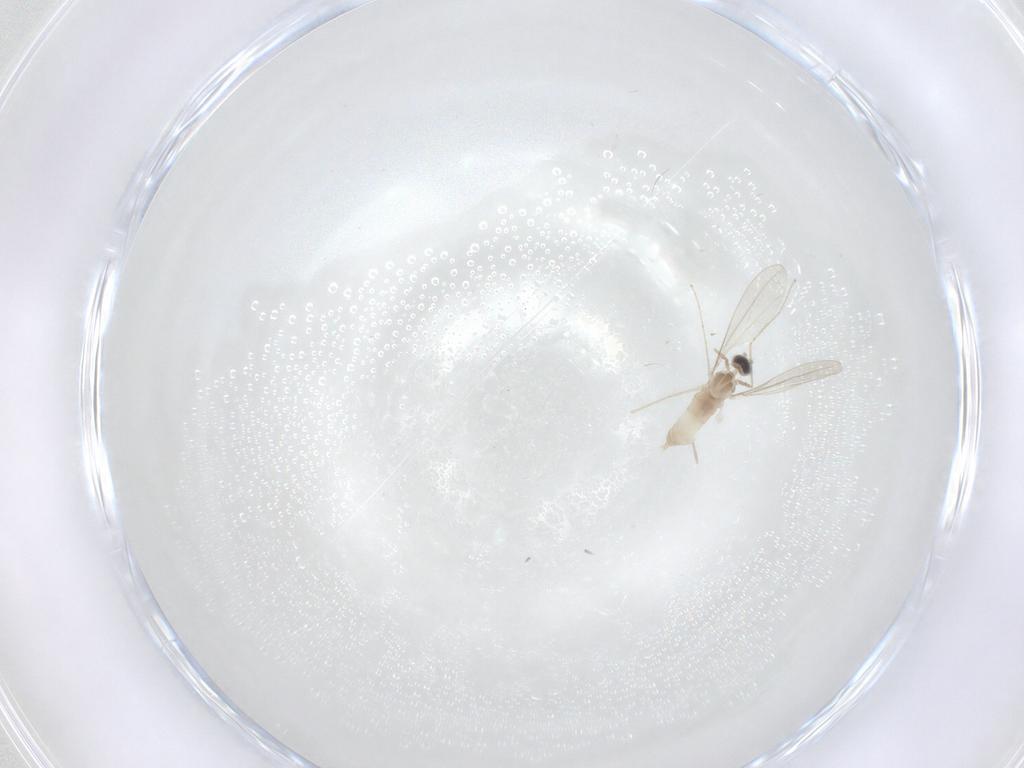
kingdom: Animalia
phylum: Arthropoda
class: Insecta
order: Diptera
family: Cecidomyiidae
